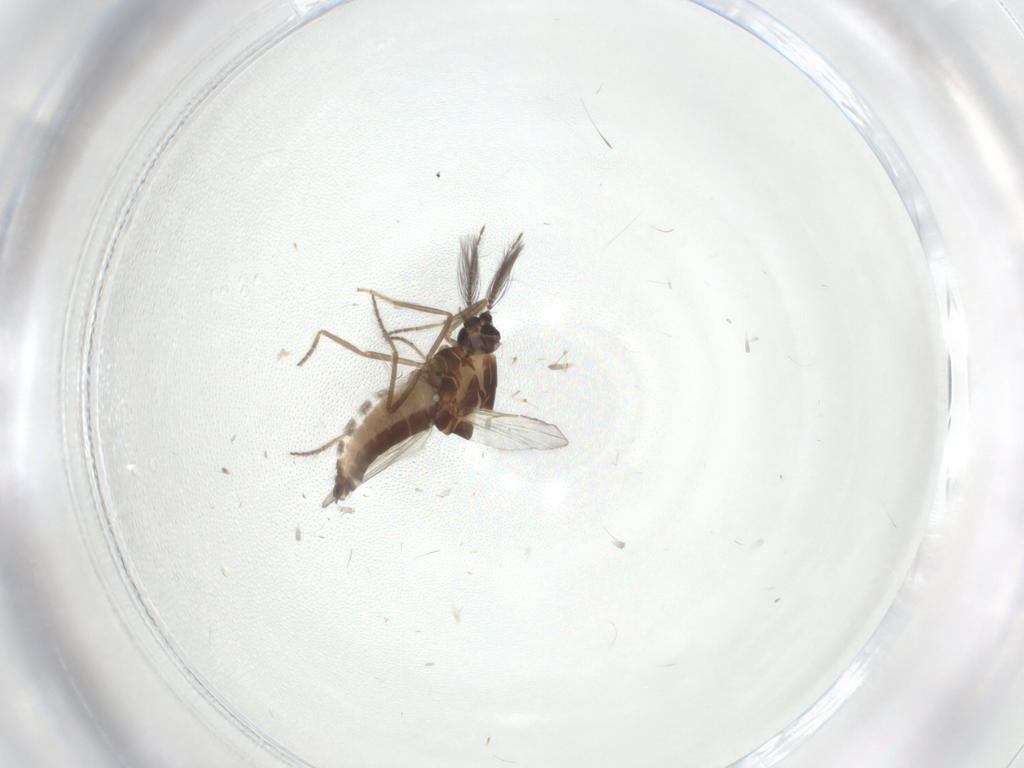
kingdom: Animalia
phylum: Arthropoda
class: Insecta
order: Diptera
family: Ceratopogonidae
